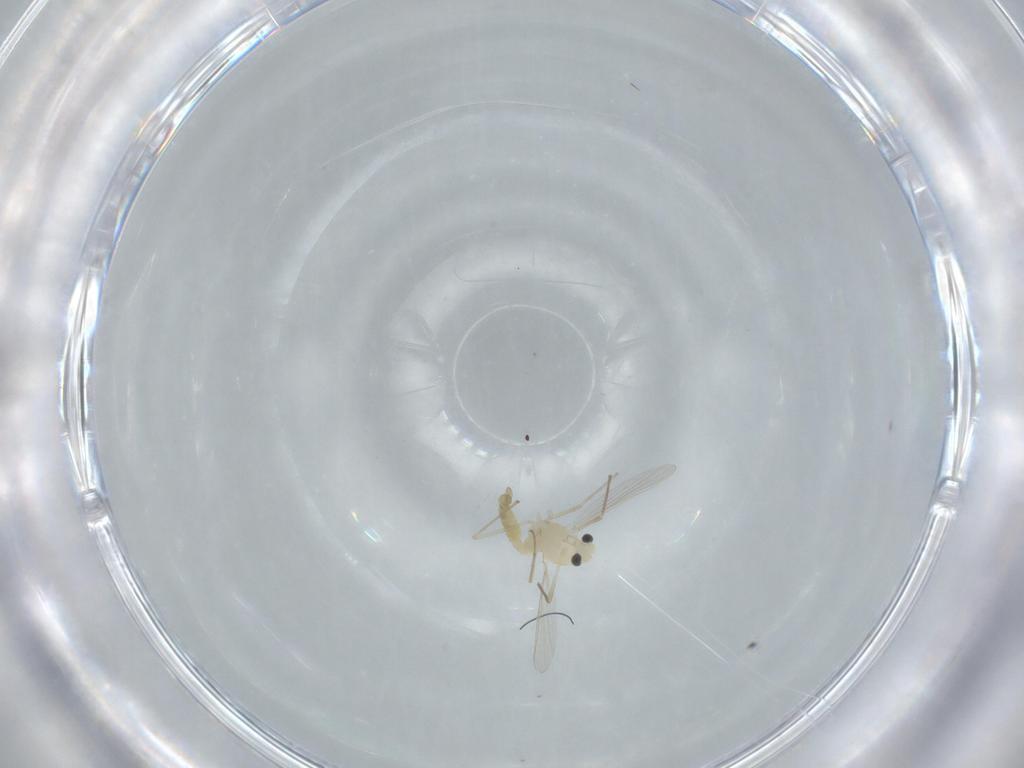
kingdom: Animalia
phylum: Arthropoda
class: Insecta
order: Diptera
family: Chironomidae
